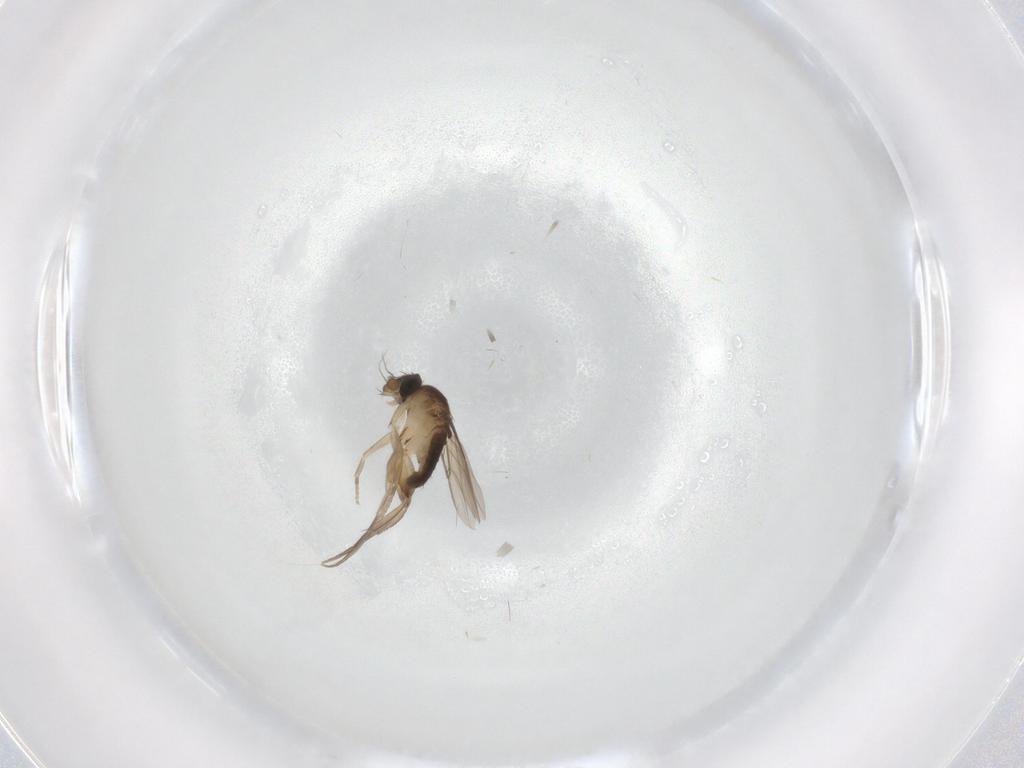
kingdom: Animalia
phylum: Arthropoda
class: Insecta
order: Diptera
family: Phoridae
